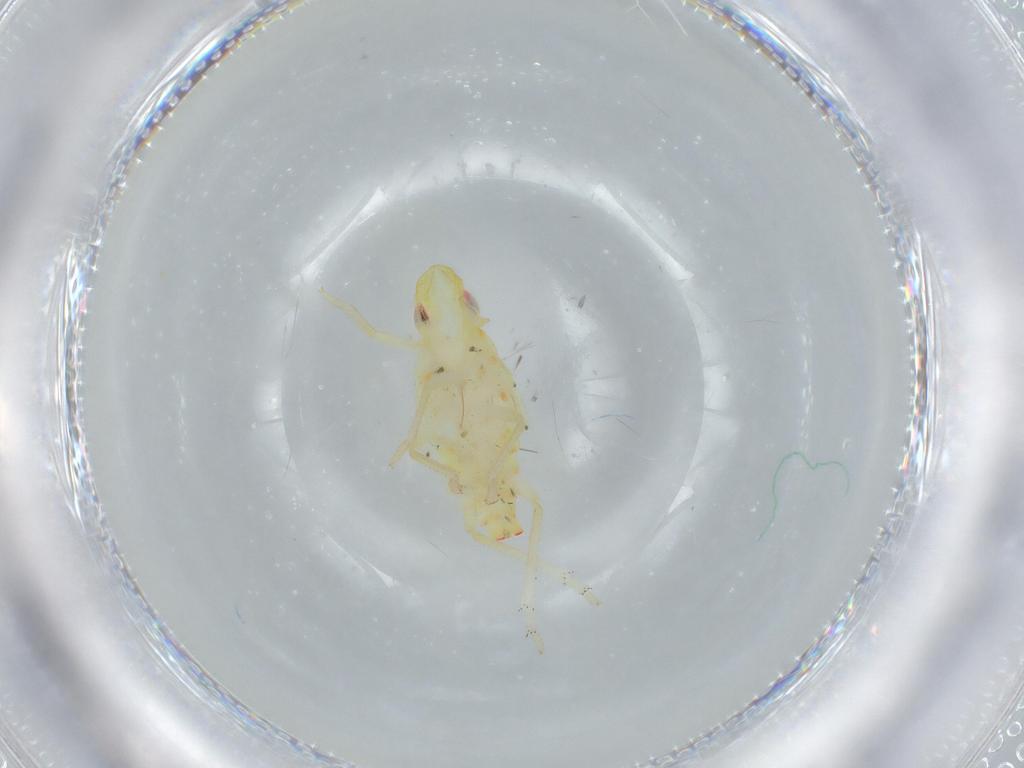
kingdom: Animalia
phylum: Arthropoda
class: Insecta
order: Hemiptera
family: Tropiduchidae
